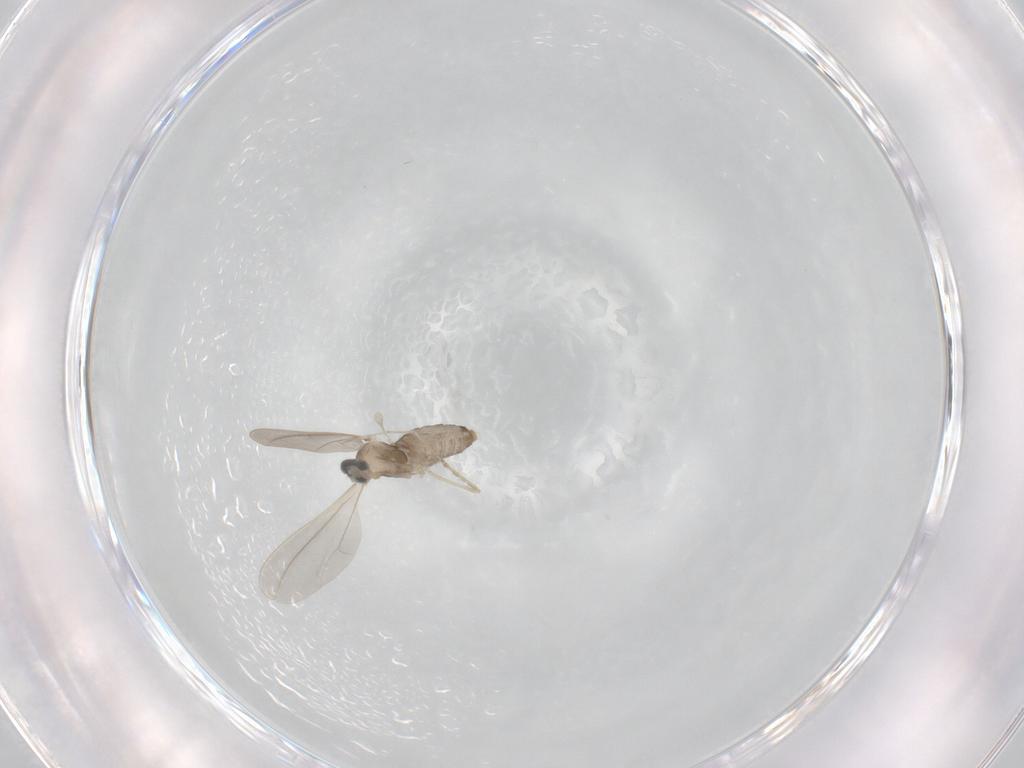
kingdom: Animalia
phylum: Arthropoda
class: Insecta
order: Diptera
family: Cecidomyiidae
